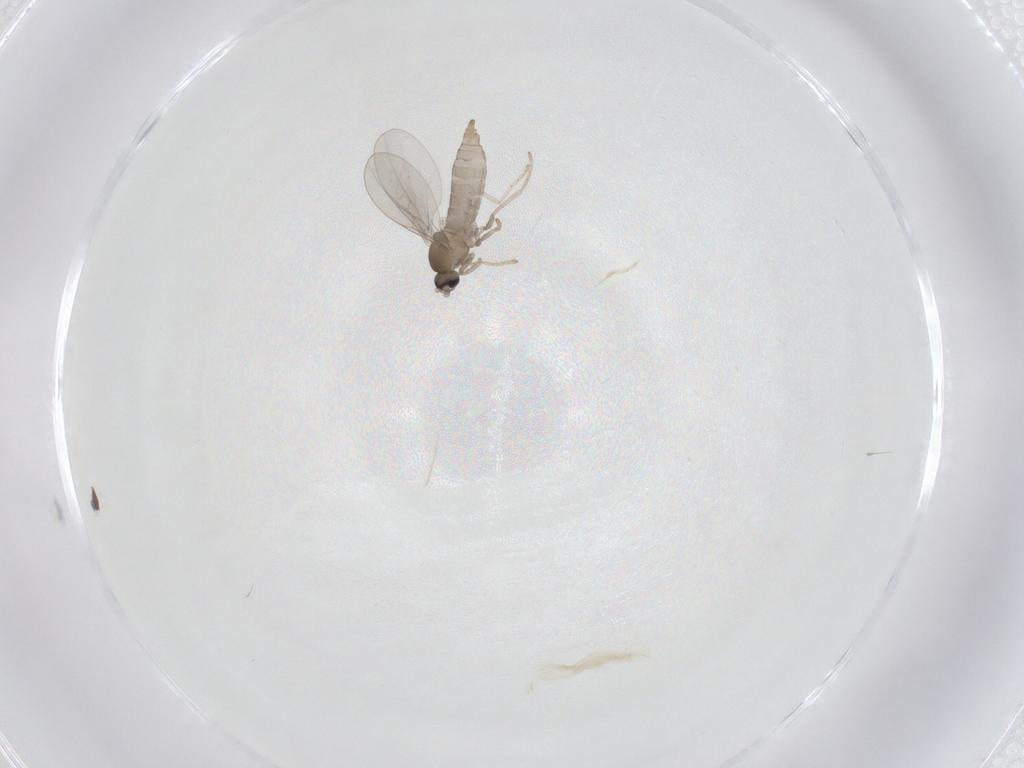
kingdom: Animalia
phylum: Arthropoda
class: Insecta
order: Diptera
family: Cecidomyiidae
